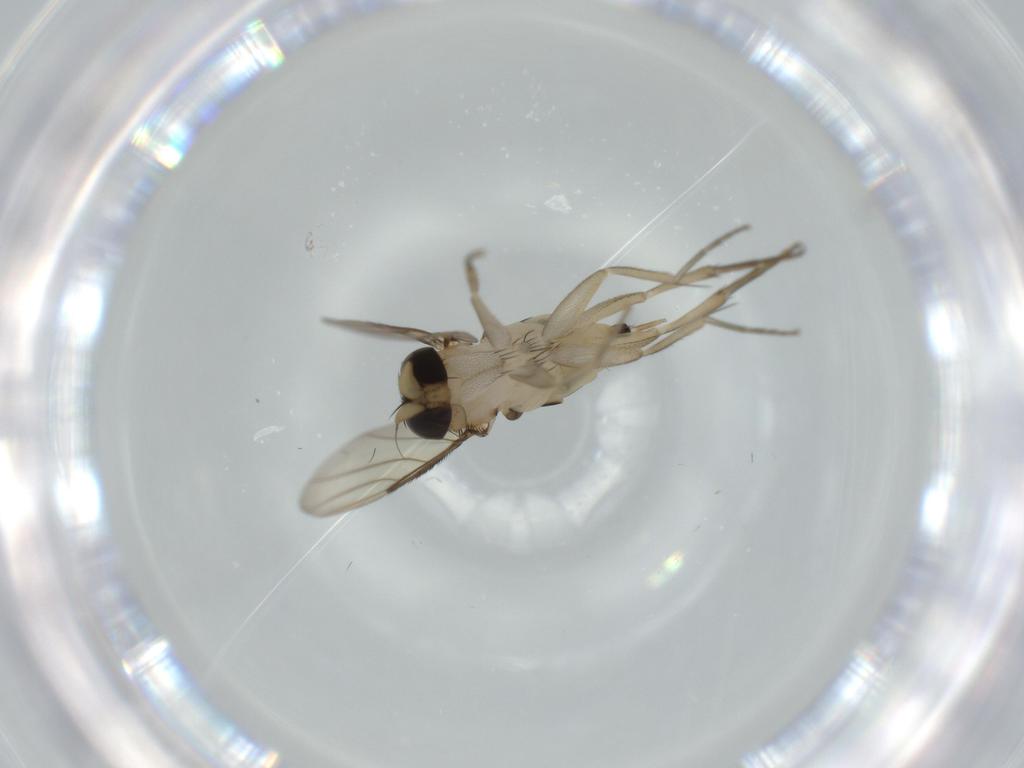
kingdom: Animalia
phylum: Arthropoda
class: Insecta
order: Diptera
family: Phoridae
